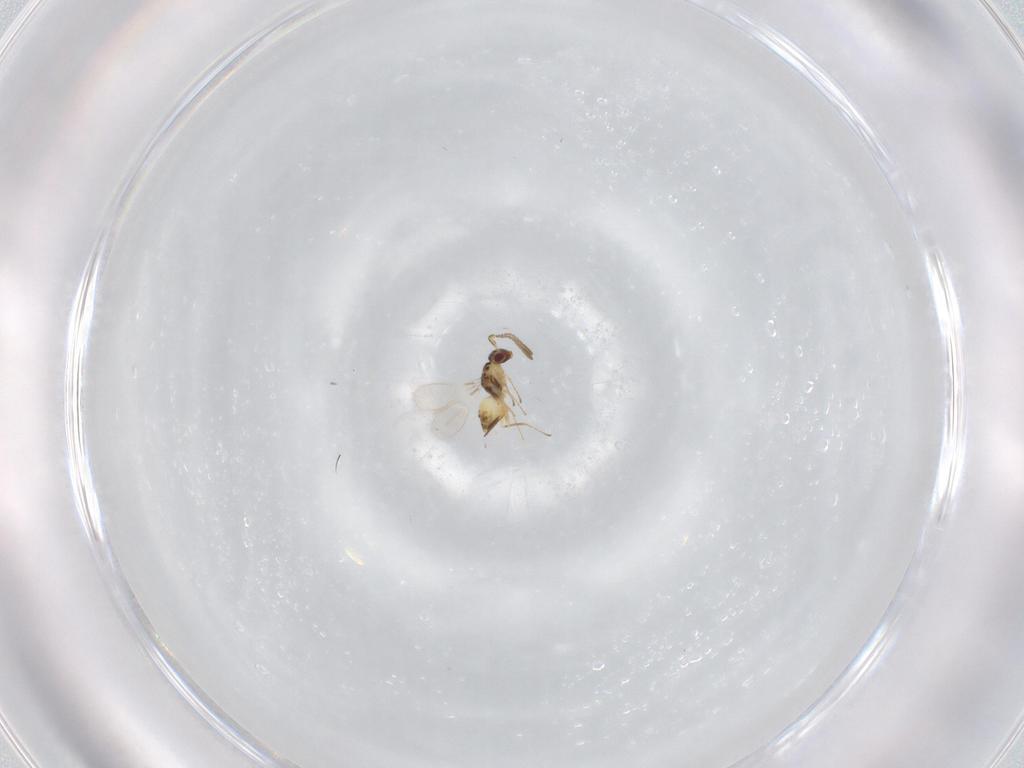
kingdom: Animalia
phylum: Arthropoda
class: Insecta
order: Hymenoptera
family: Mymaridae
